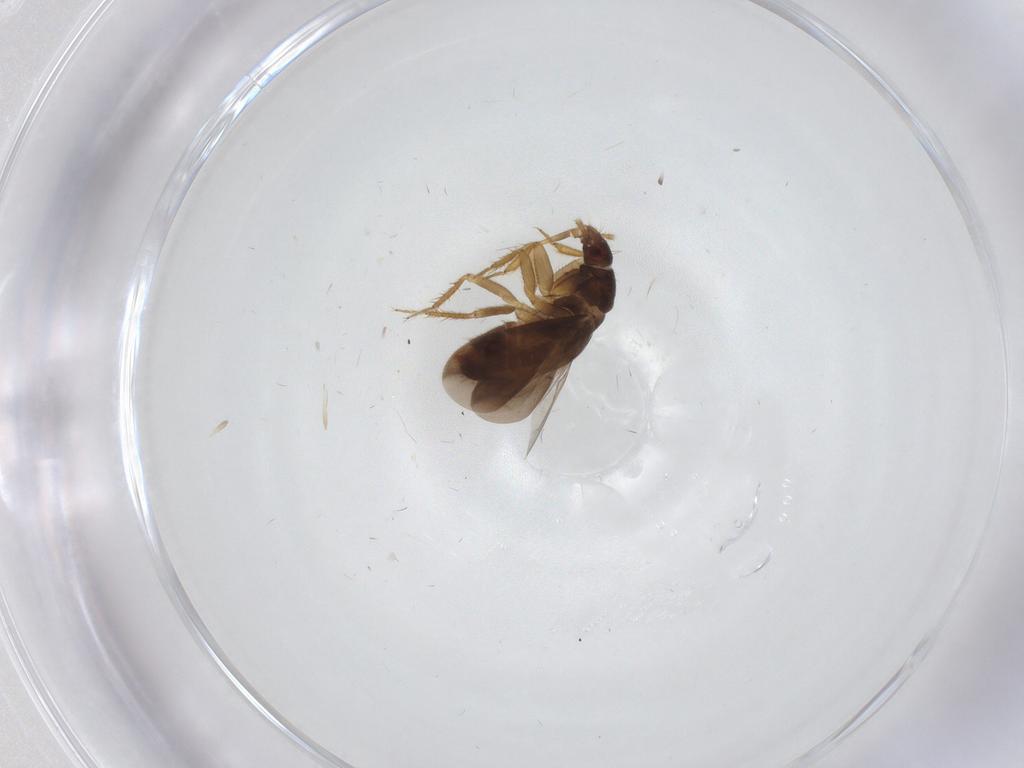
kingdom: Animalia
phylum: Arthropoda
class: Insecta
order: Hemiptera
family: Ceratocombidae
